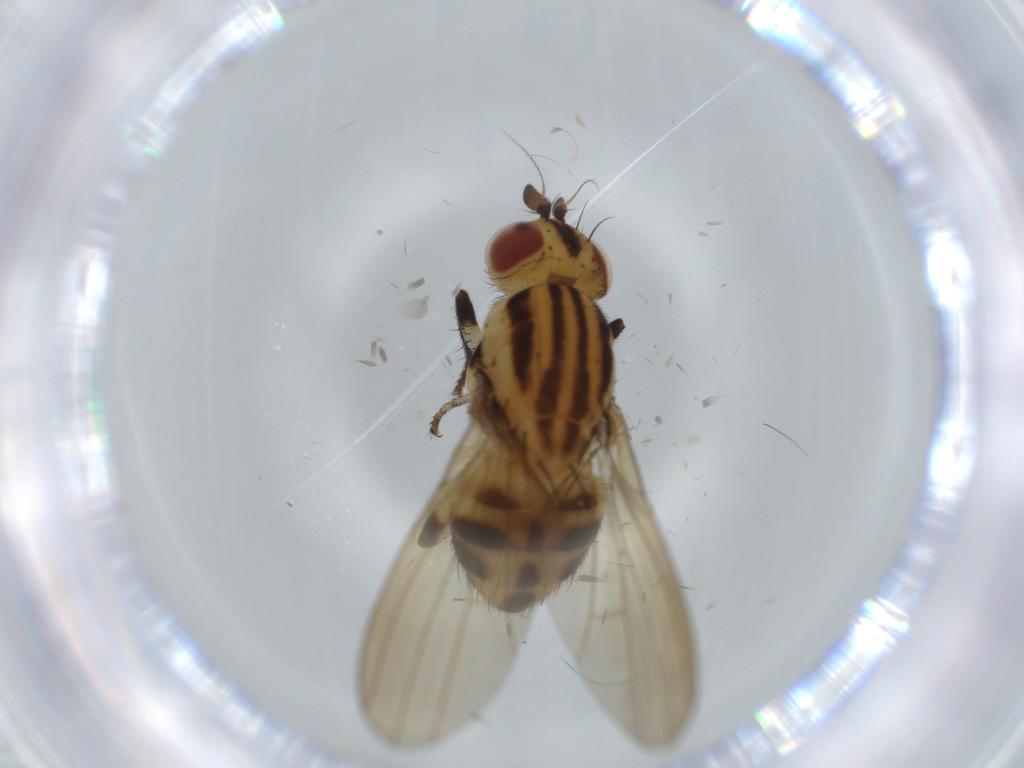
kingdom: Animalia
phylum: Arthropoda
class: Insecta
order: Diptera
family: Lauxaniidae
